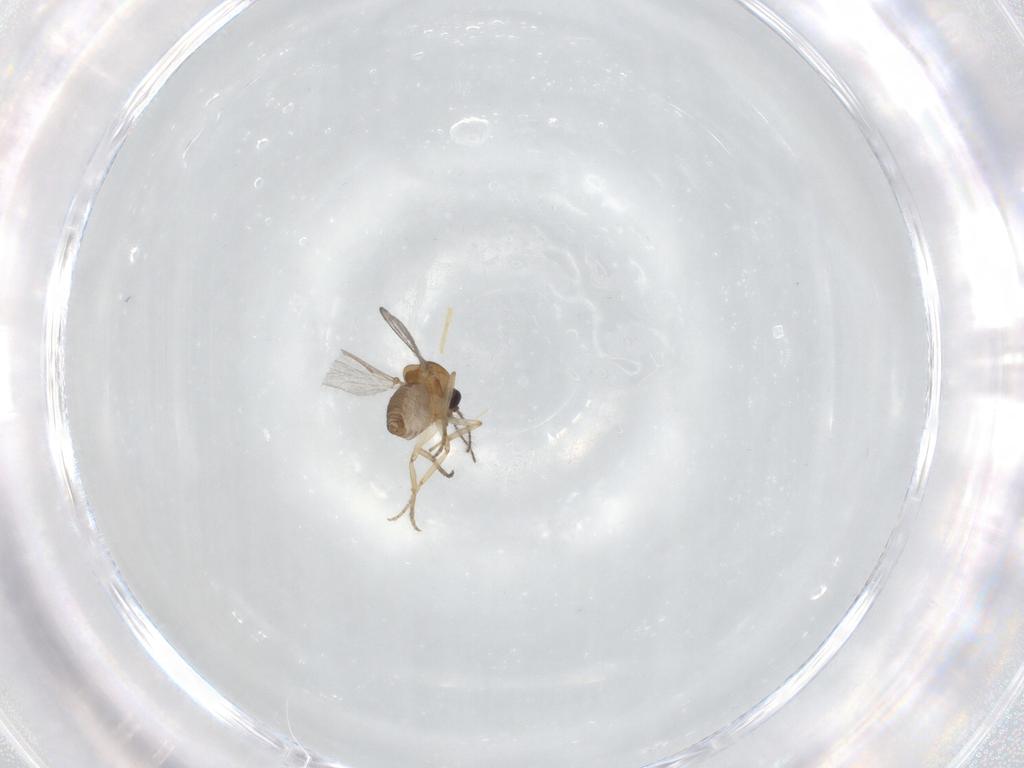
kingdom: Animalia
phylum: Arthropoda
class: Insecta
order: Diptera
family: Ceratopogonidae
